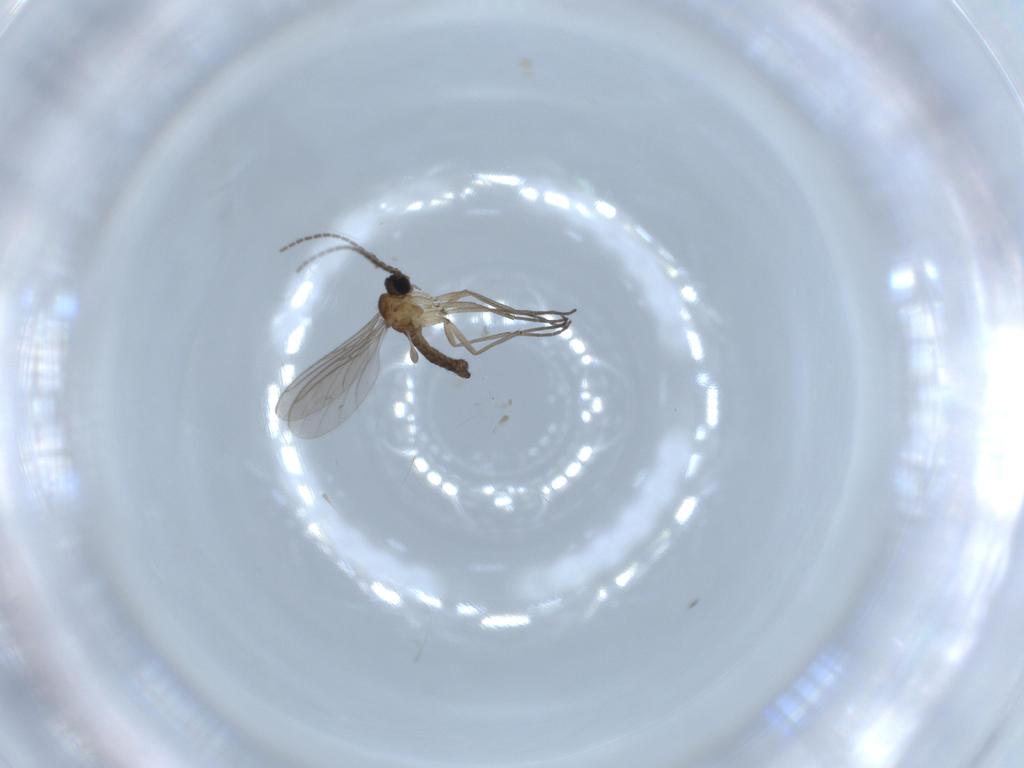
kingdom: Animalia
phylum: Arthropoda
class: Insecta
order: Diptera
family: Sciaridae
